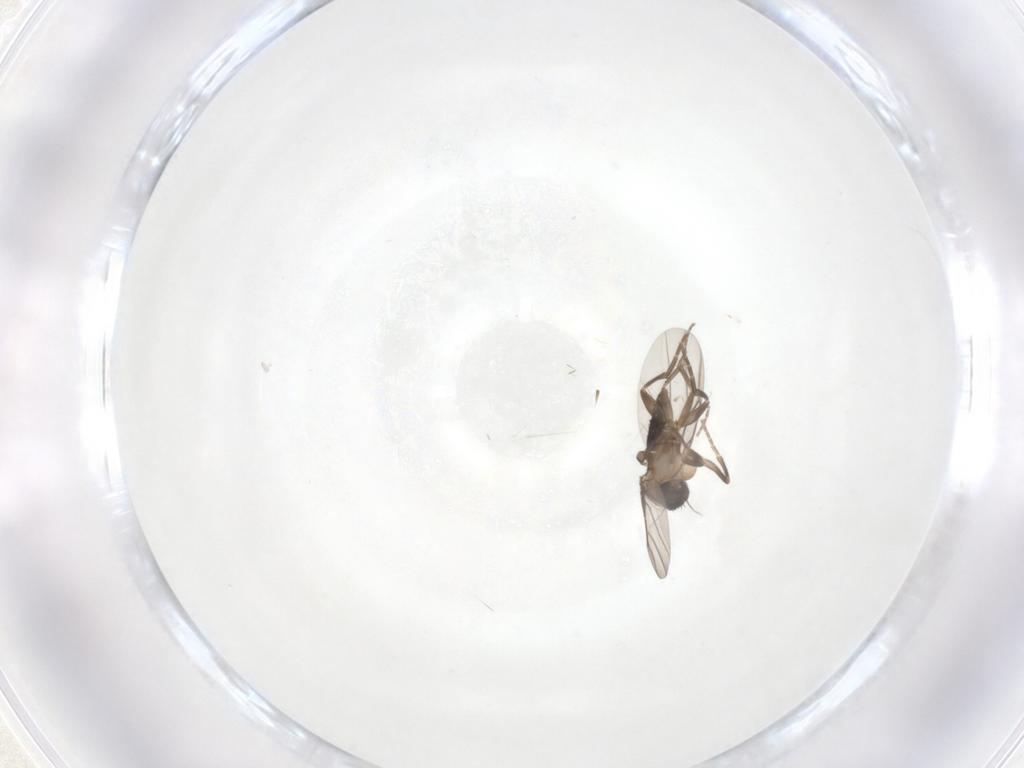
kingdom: Animalia
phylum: Arthropoda
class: Insecta
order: Diptera
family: Phoridae
